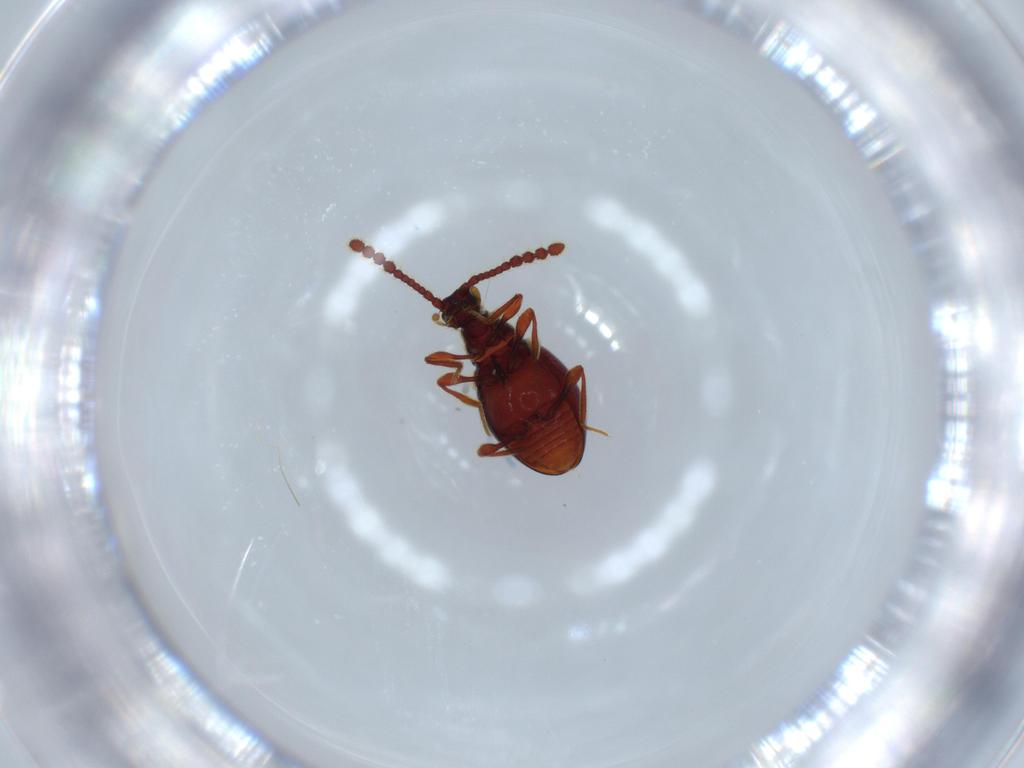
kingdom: Animalia
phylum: Arthropoda
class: Insecta
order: Coleoptera
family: Staphylinidae
